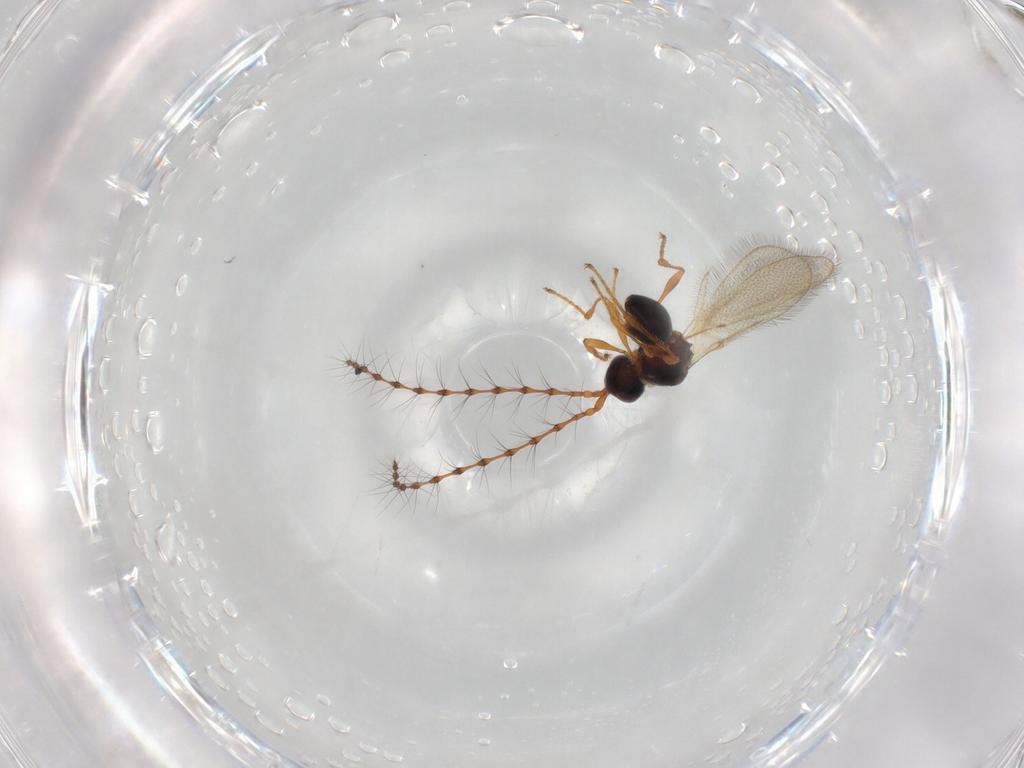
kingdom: Animalia
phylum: Arthropoda
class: Insecta
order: Hymenoptera
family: Diapriidae
